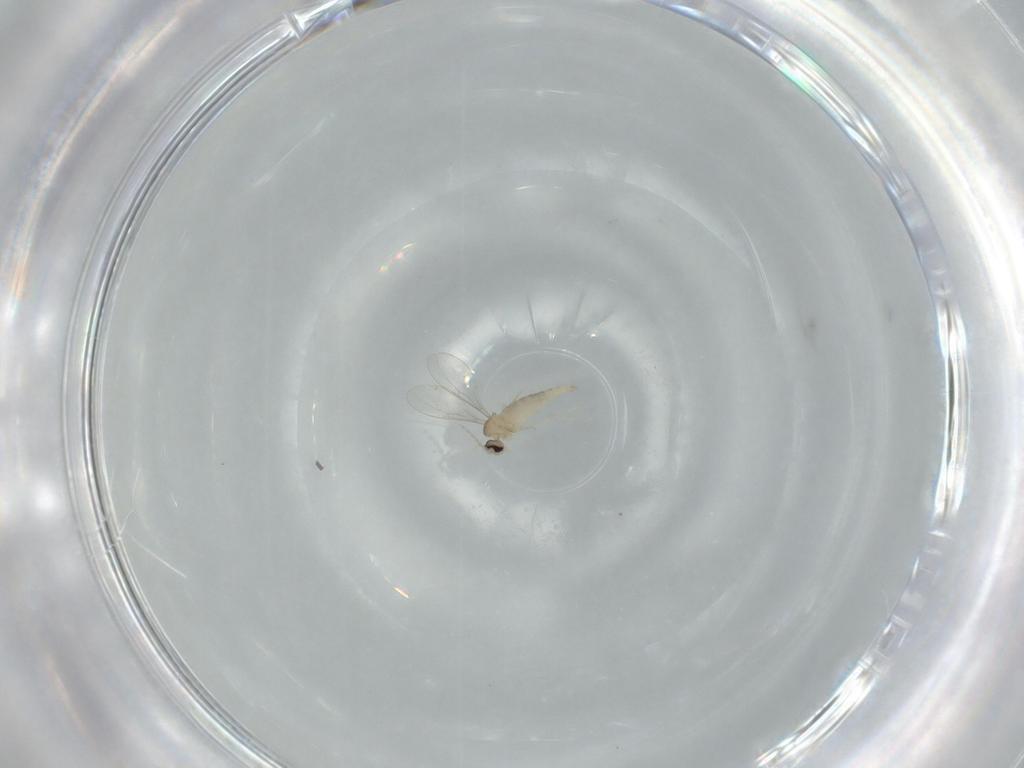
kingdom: Animalia
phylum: Arthropoda
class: Insecta
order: Diptera
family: Cecidomyiidae
